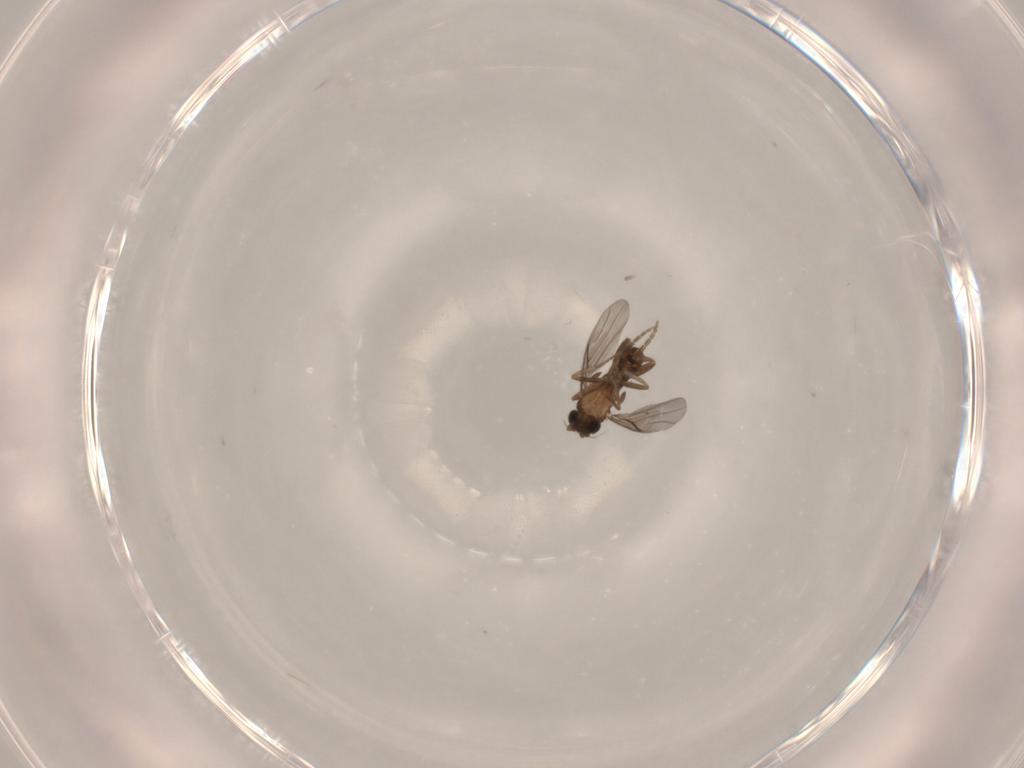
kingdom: Animalia
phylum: Arthropoda
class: Insecta
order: Diptera
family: Phoridae
